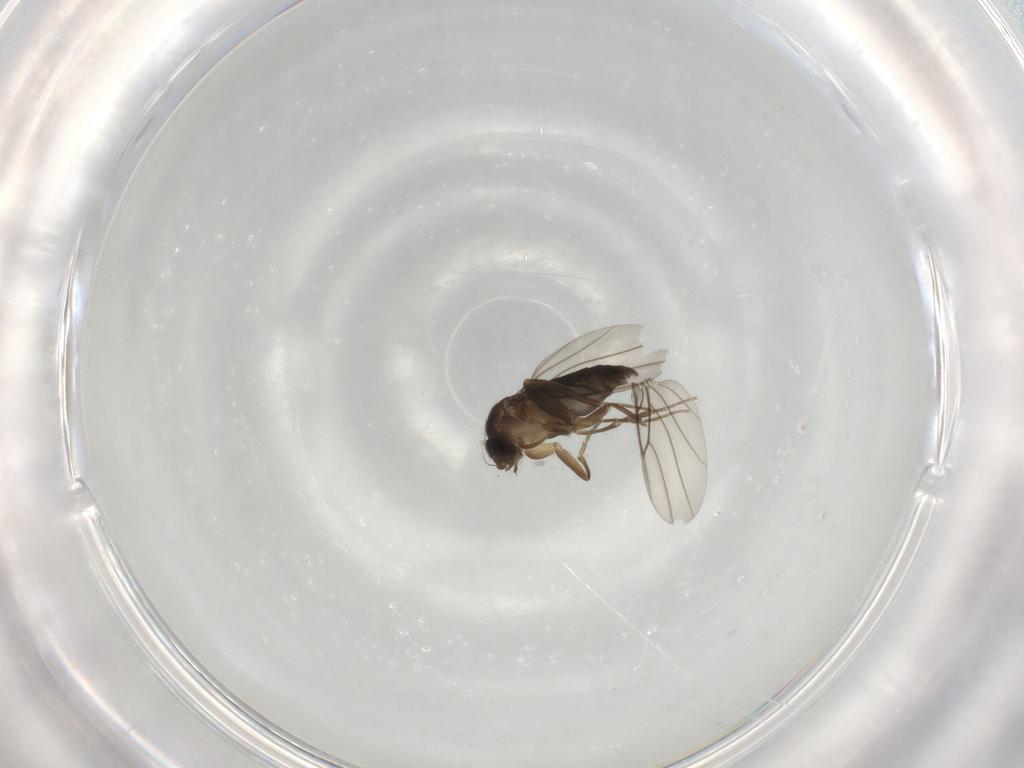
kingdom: Animalia
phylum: Arthropoda
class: Insecta
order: Diptera
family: Phoridae
